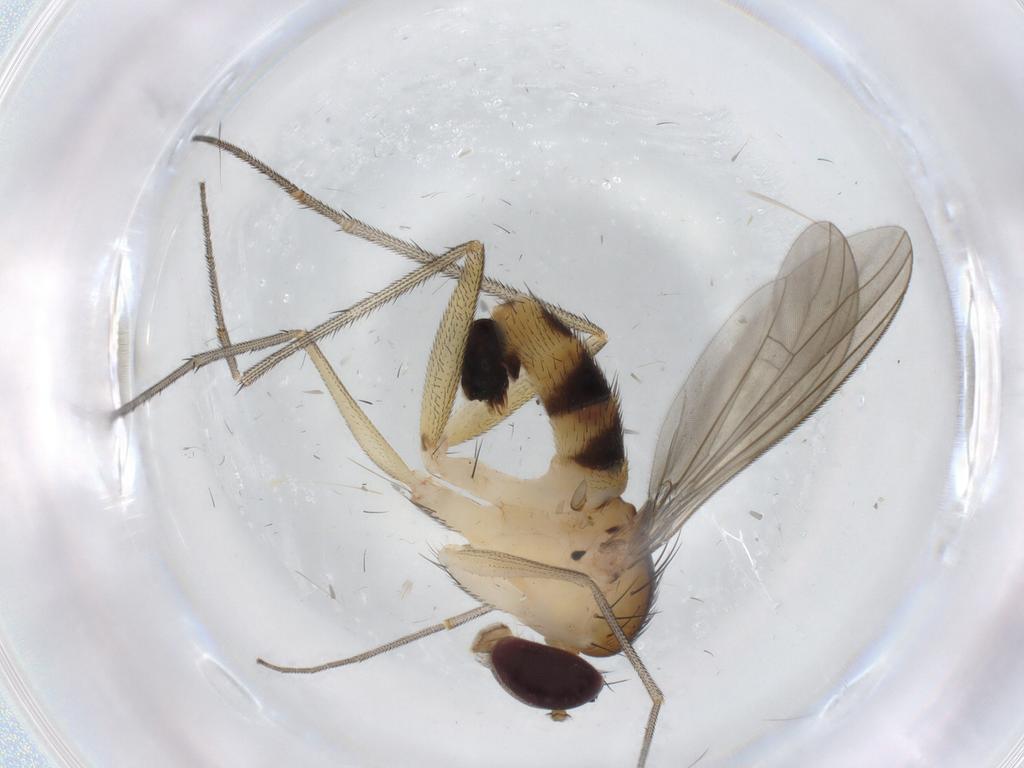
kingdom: Animalia
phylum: Arthropoda
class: Insecta
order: Diptera
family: Dolichopodidae
